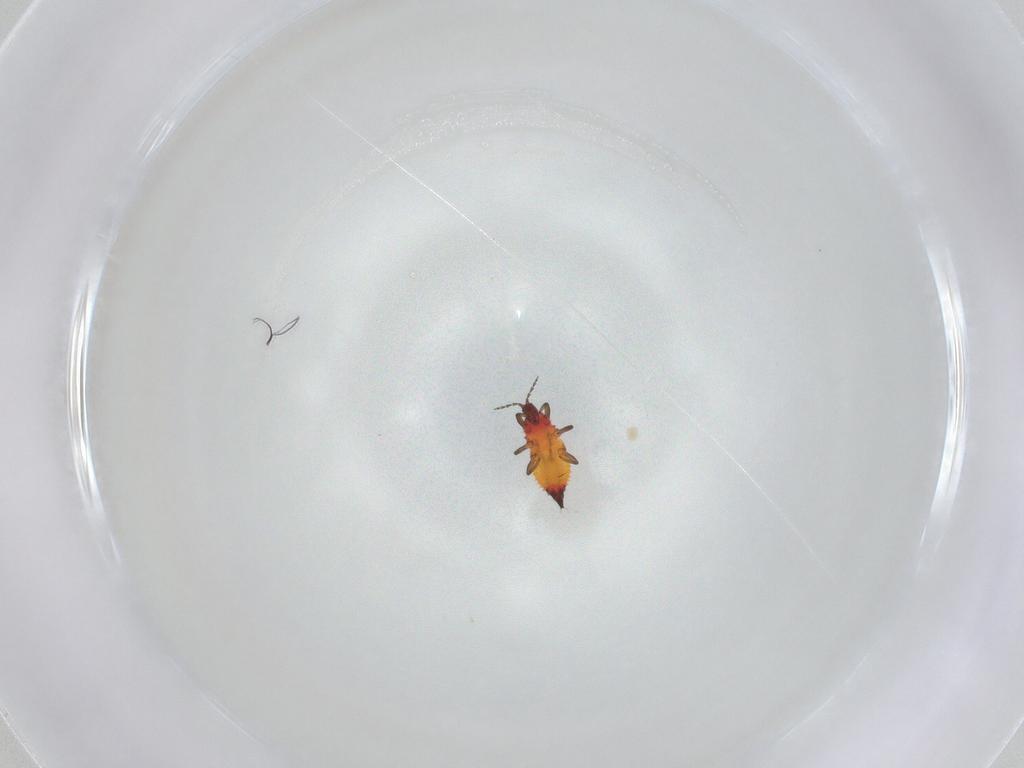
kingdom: Animalia
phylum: Arthropoda
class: Insecta
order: Thysanoptera
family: Phlaeothripidae
